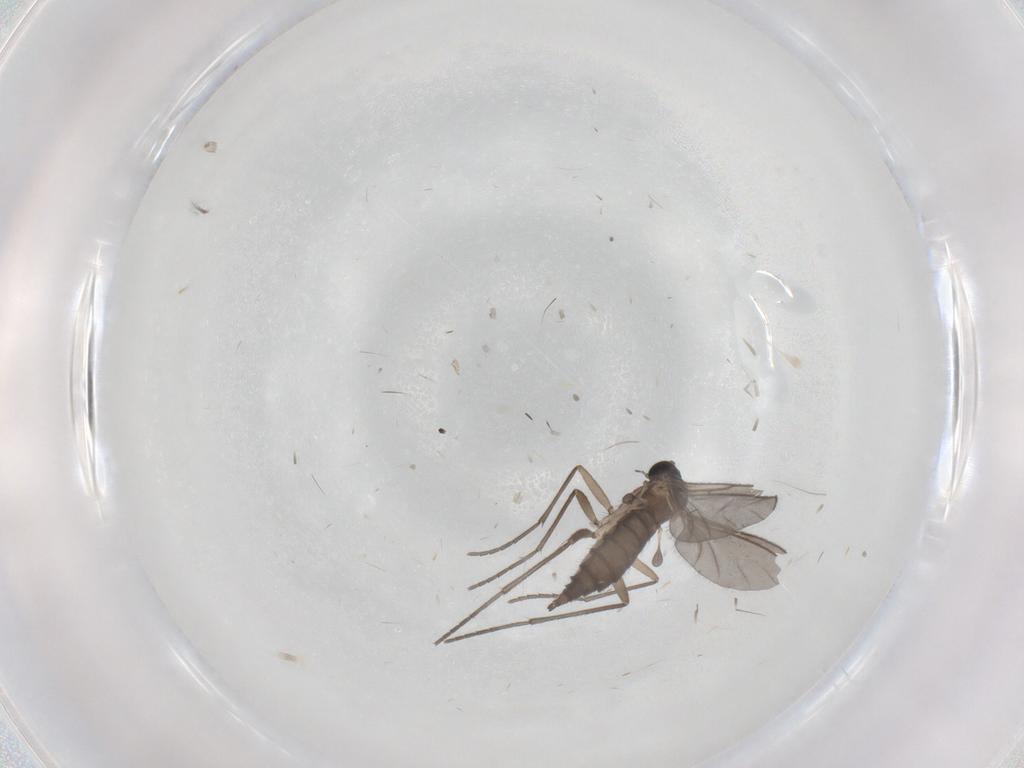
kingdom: Animalia
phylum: Arthropoda
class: Insecta
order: Diptera
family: Sciaridae
